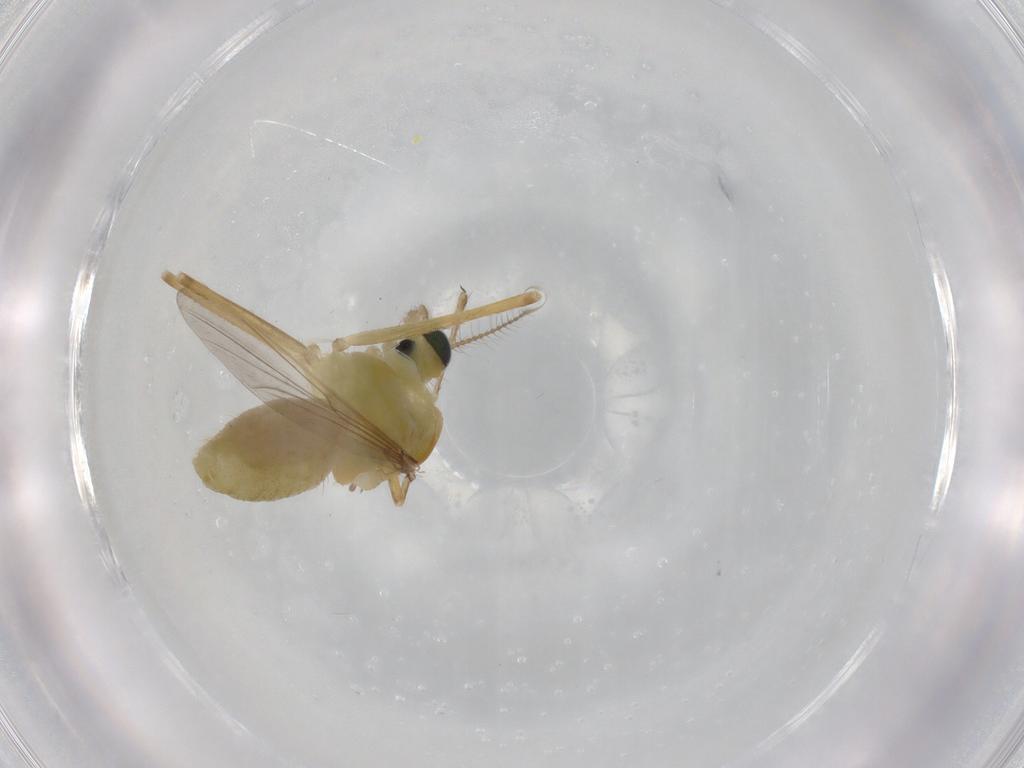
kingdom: Animalia
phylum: Arthropoda
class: Insecta
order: Diptera
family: Chironomidae
